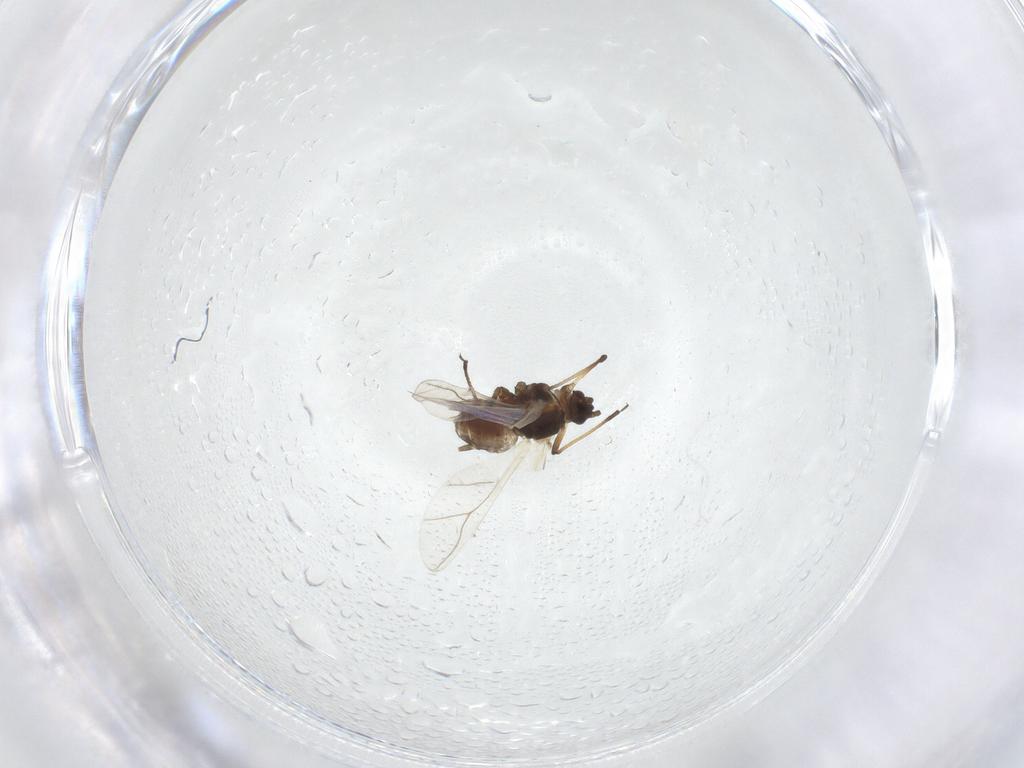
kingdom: Animalia
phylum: Arthropoda
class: Insecta
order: Hemiptera
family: Aphididae
